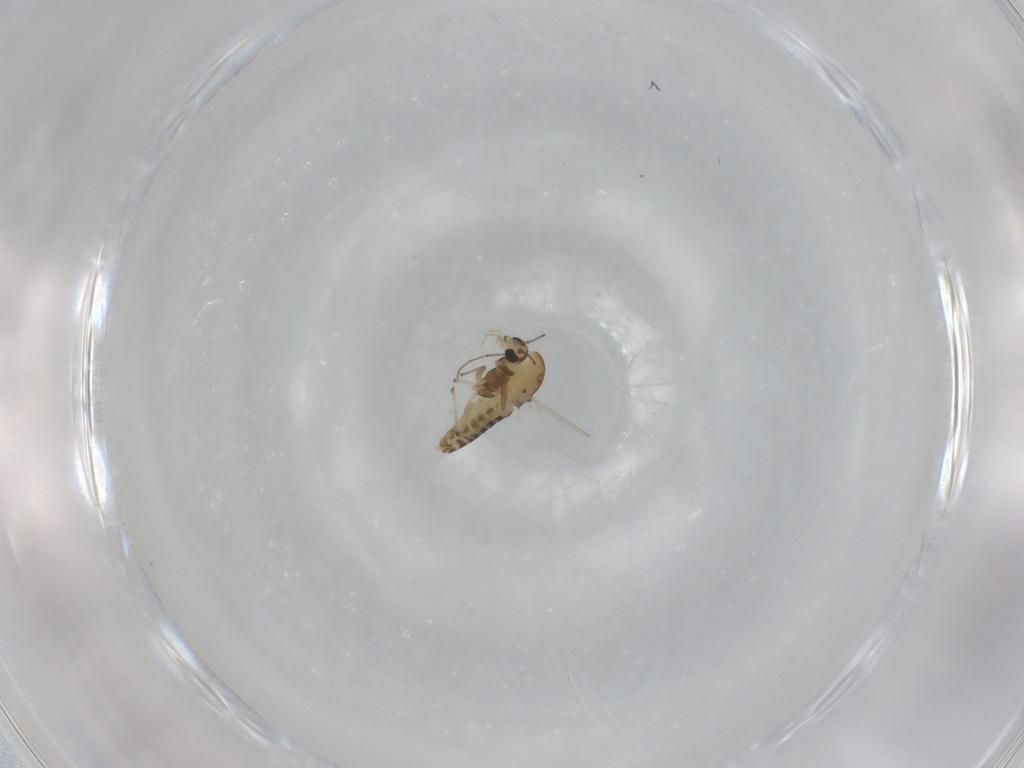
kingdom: Animalia
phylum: Arthropoda
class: Insecta
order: Diptera
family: Chironomidae
